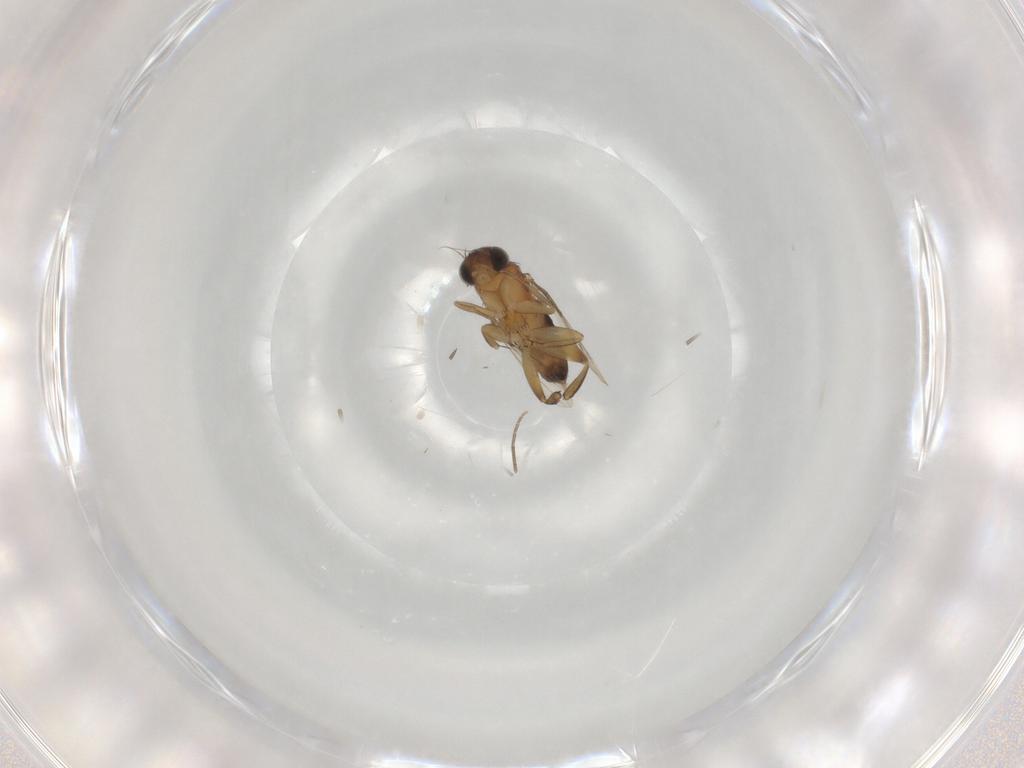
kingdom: Animalia
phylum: Arthropoda
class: Insecta
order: Diptera
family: Phoridae
